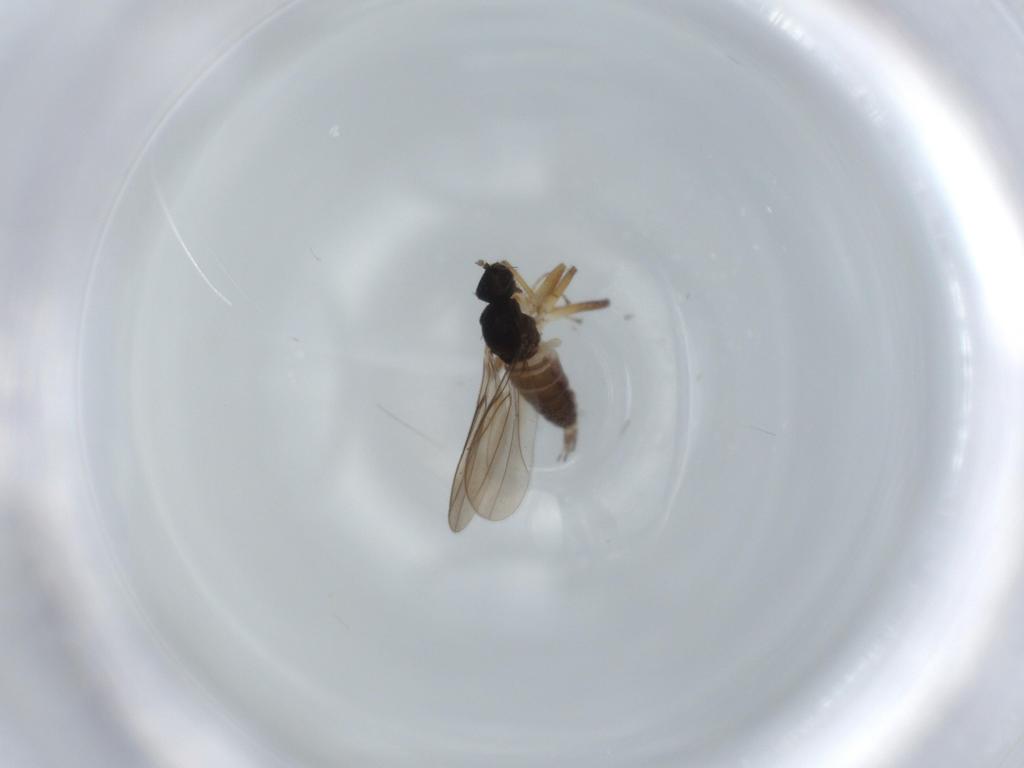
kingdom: Animalia
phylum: Arthropoda
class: Insecta
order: Diptera
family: Hybotidae
